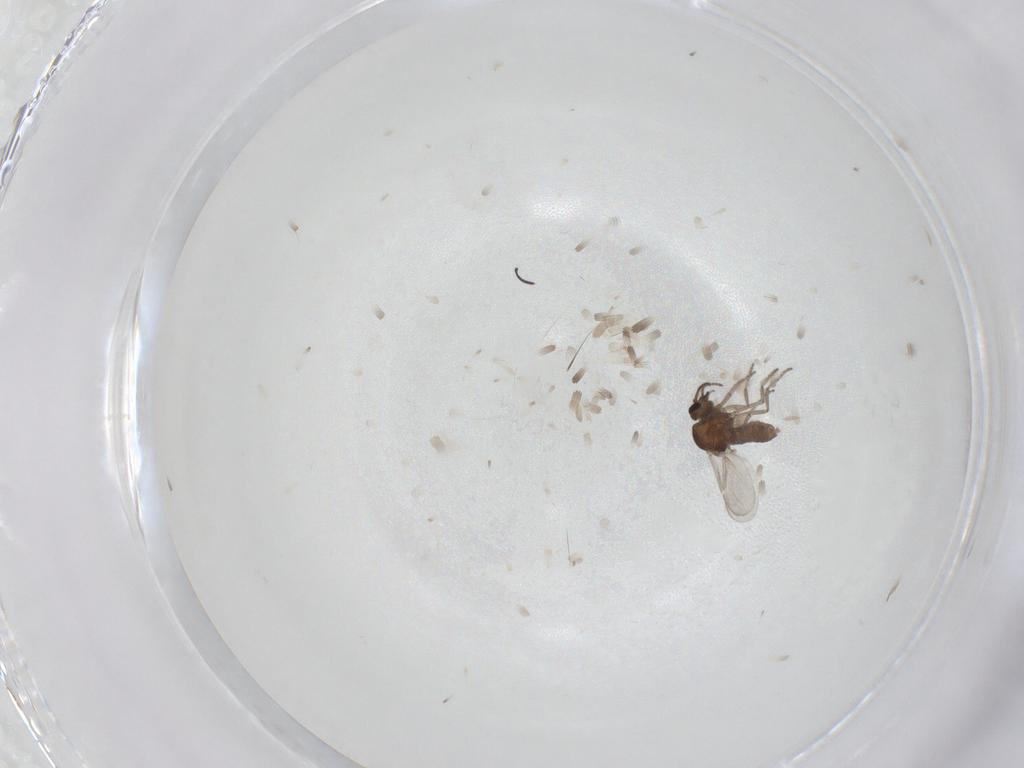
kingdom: Animalia
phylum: Arthropoda
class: Insecta
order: Diptera
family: Ceratopogonidae
